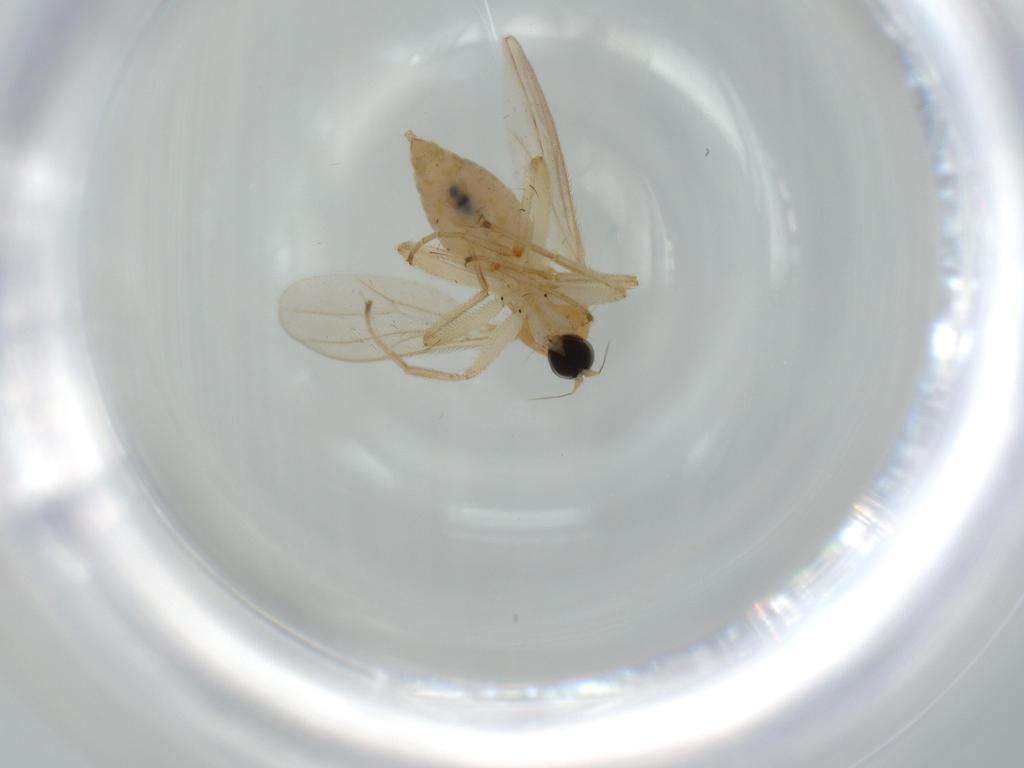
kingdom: Animalia
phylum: Arthropoda
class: Insecta
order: Diptera
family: Hybotidae
